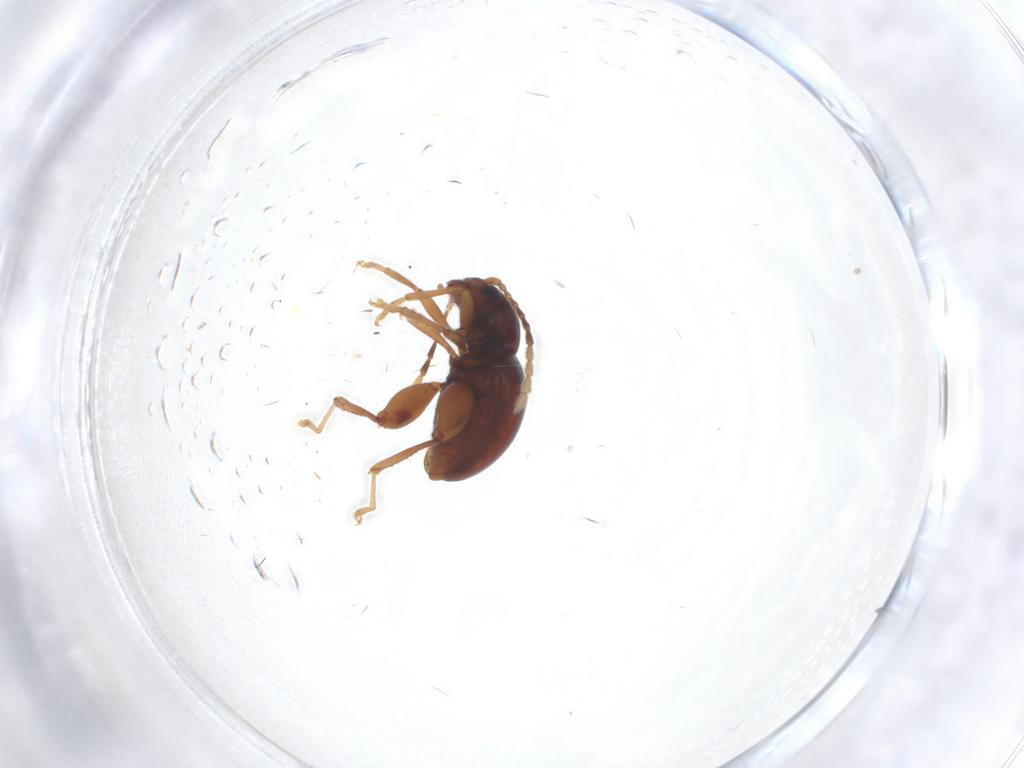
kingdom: Animalia
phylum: Arthropoda
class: Insecta
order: Coleoptera
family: Chrysomelidae
